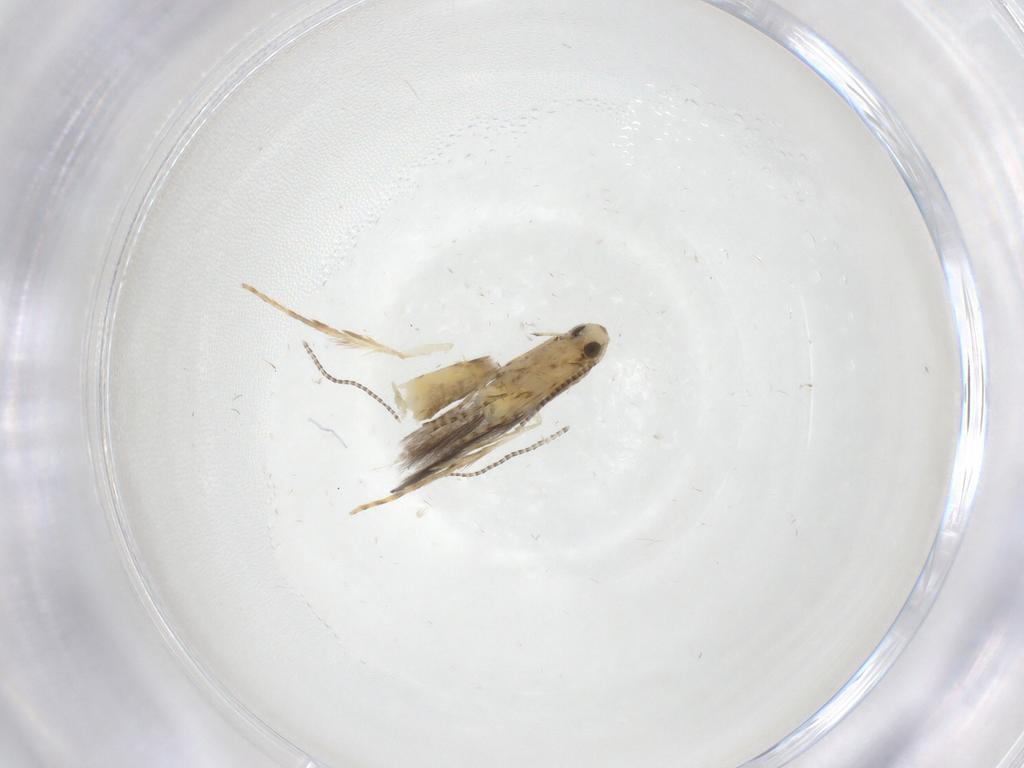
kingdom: Animalia
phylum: Arthropoda
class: Insecta
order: Lepidoptera
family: Gracillariidae
